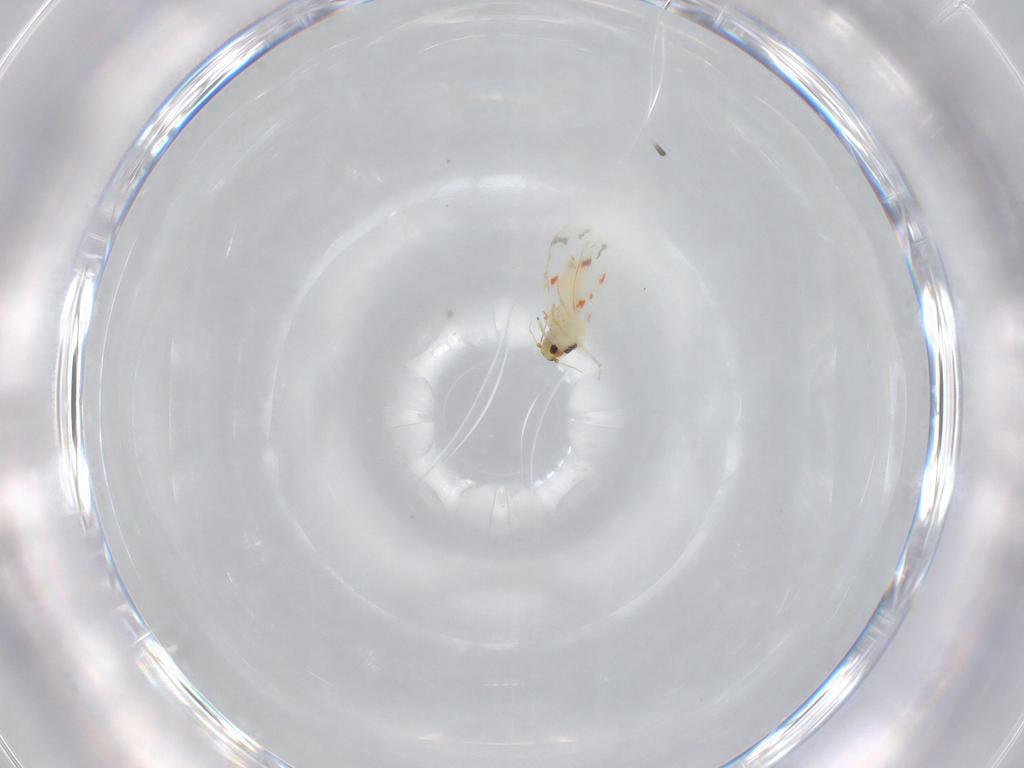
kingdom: Animalia
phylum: Arthropoda
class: Insecta
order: Hemiptera
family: Aleyrodidae
